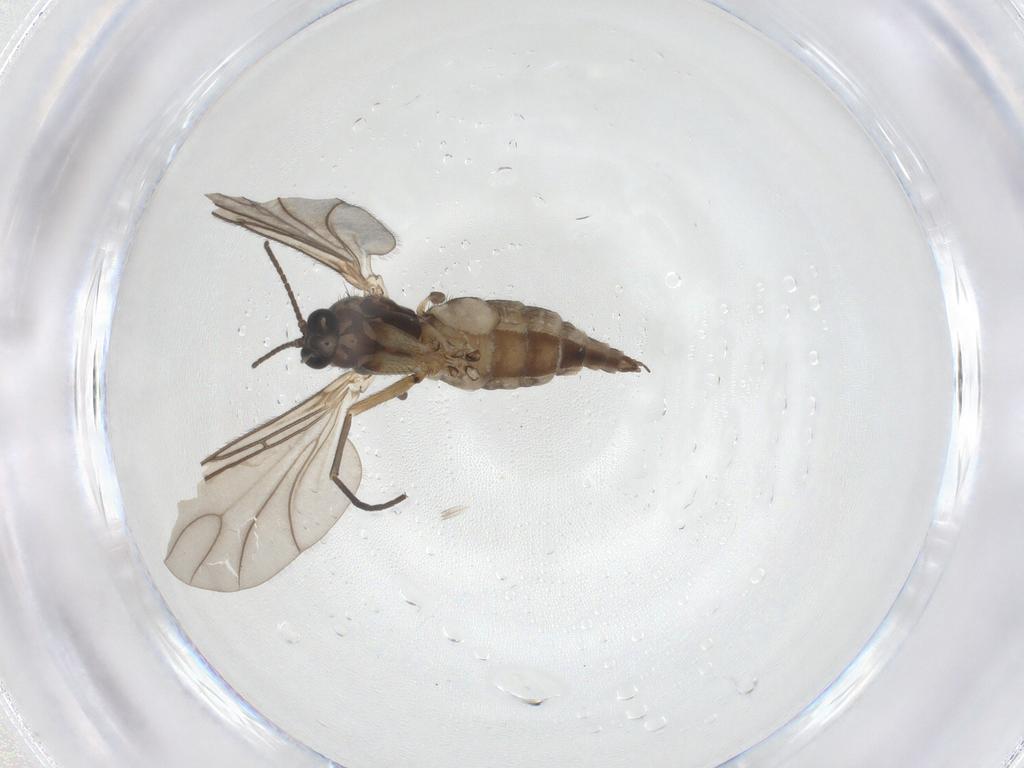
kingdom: Animalia
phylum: Arthropoda
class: Insecta
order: Diptera
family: Sciaridae
